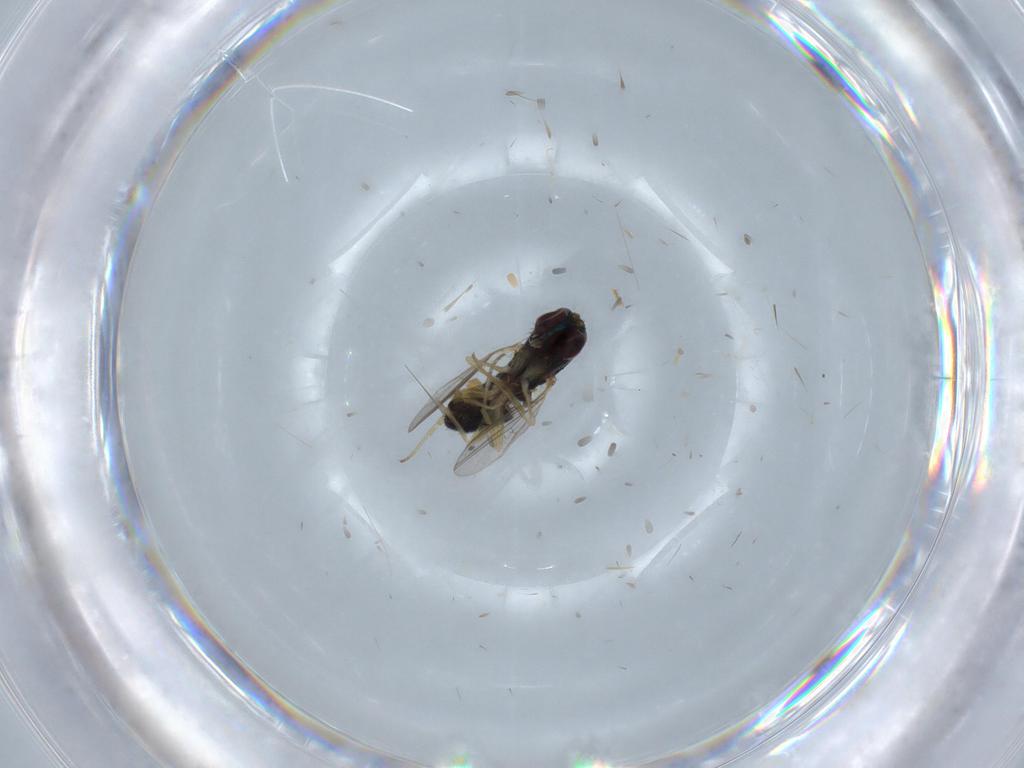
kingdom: Animalia
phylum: Arthropoda
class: Insecta
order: Diptera
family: Dolichopodidae
